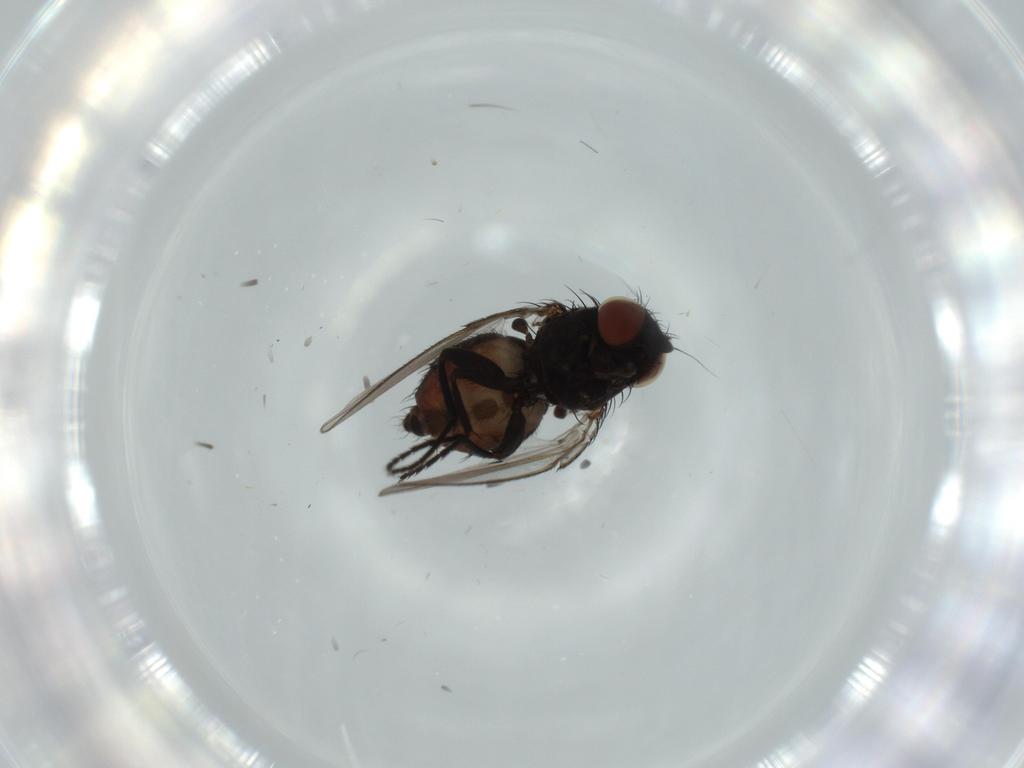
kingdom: Animalia
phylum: Arthropoda
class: Insecta
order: Diptera
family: Milichiidae
